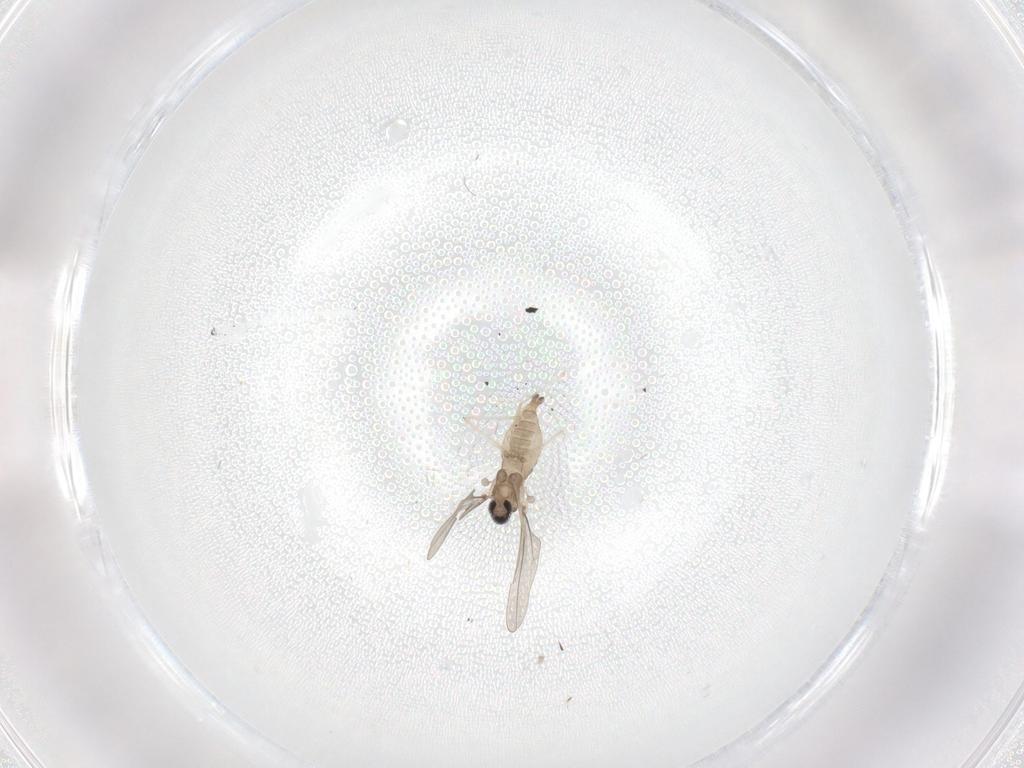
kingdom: Animalia
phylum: Arthropoda
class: Insecta
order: Diptera
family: Cecidomyiidae
